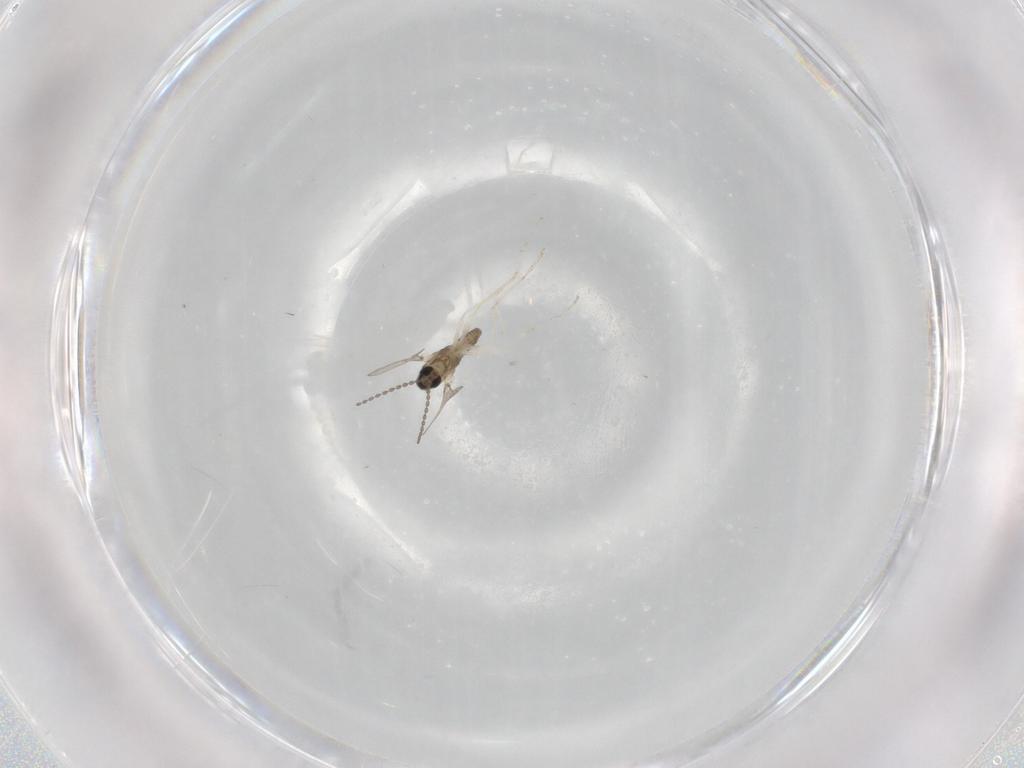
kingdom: Animalia
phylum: Arthropoda
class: Insecta
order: Diptera
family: Cecidomyiidae
